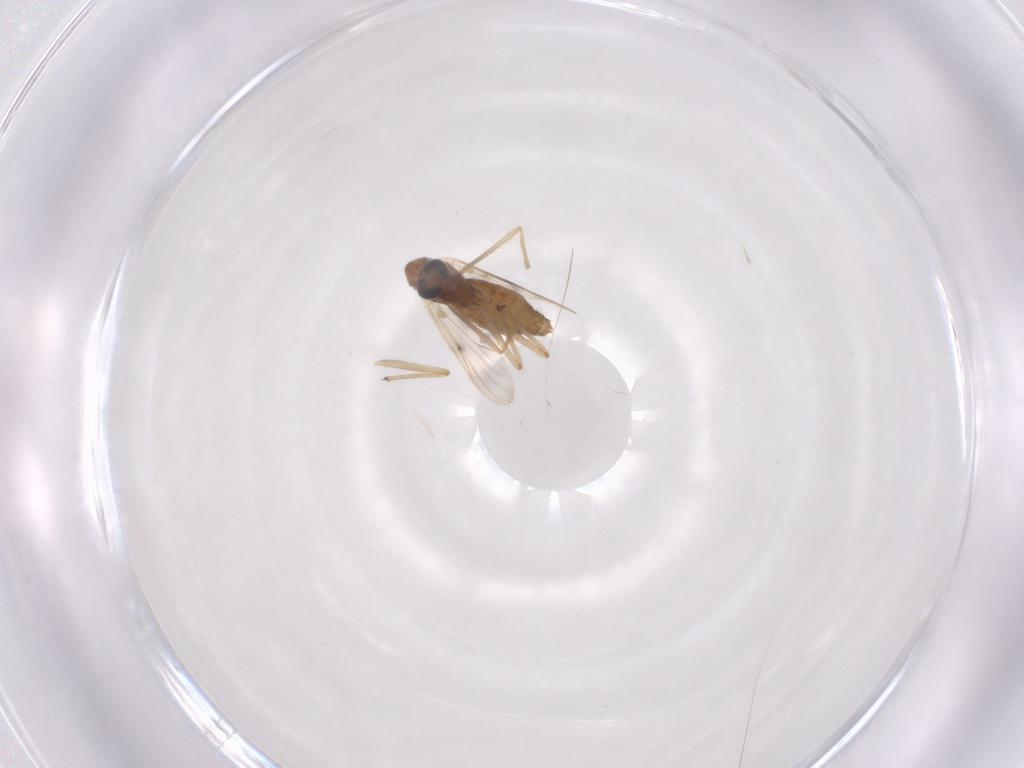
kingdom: Animalia
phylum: Arthropoda
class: Insecta
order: Diptera
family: Chironomidae
